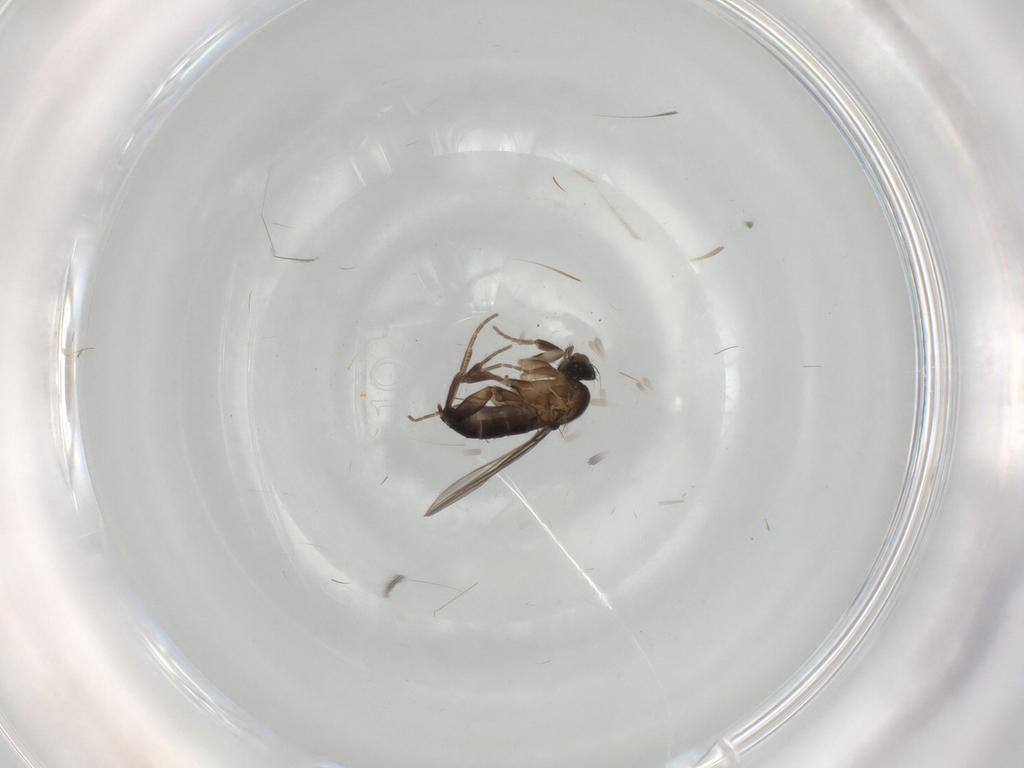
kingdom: Animalia
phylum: Arthropoda
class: Insecta
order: Diptera
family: Phoridae
